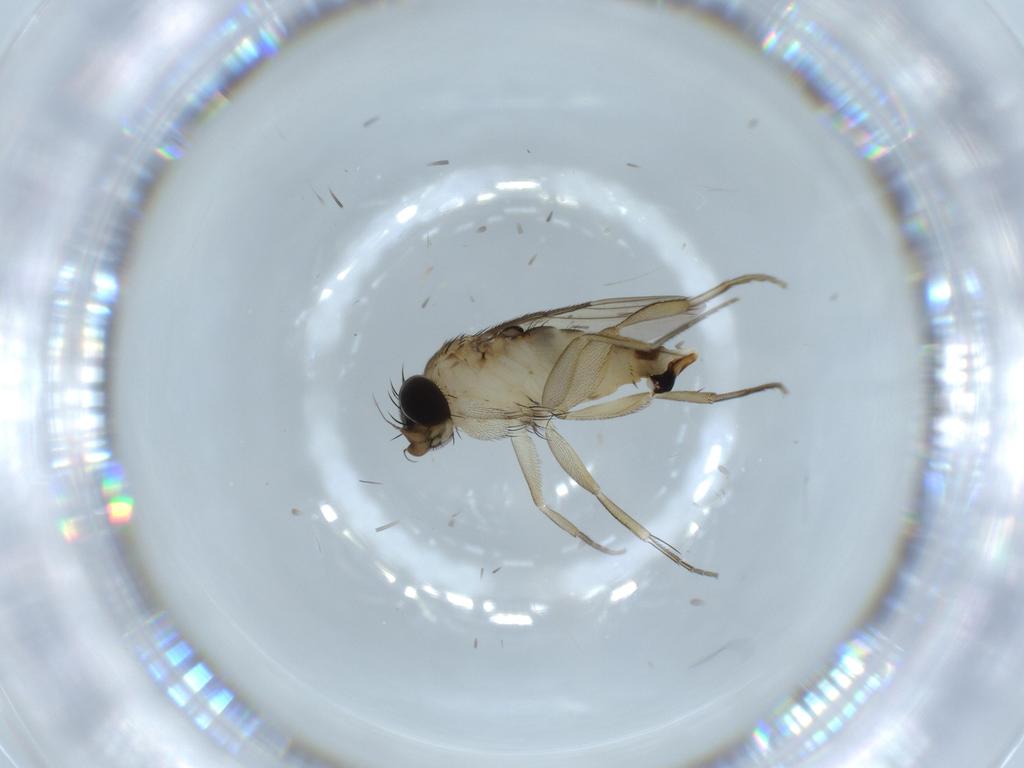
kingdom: Animalia
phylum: Arthropoda
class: Insecta
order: Diptera
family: Phoridae
